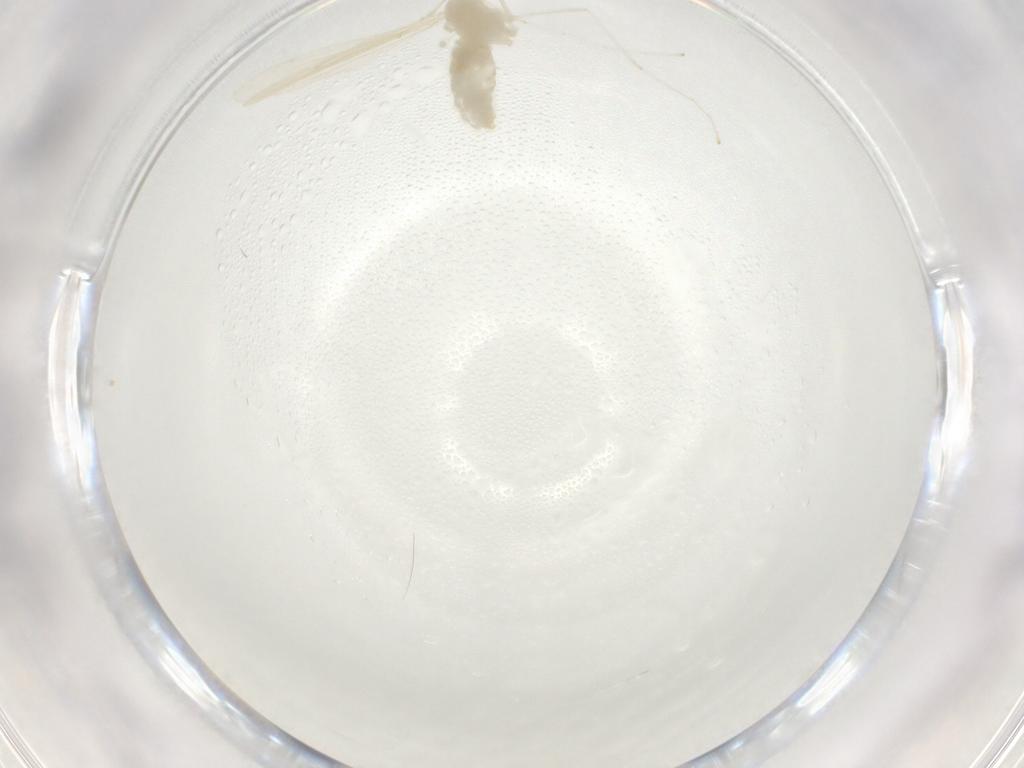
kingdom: Animalia
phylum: Arthropoda
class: Insecta
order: Diptera
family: Cecidomyiidae
